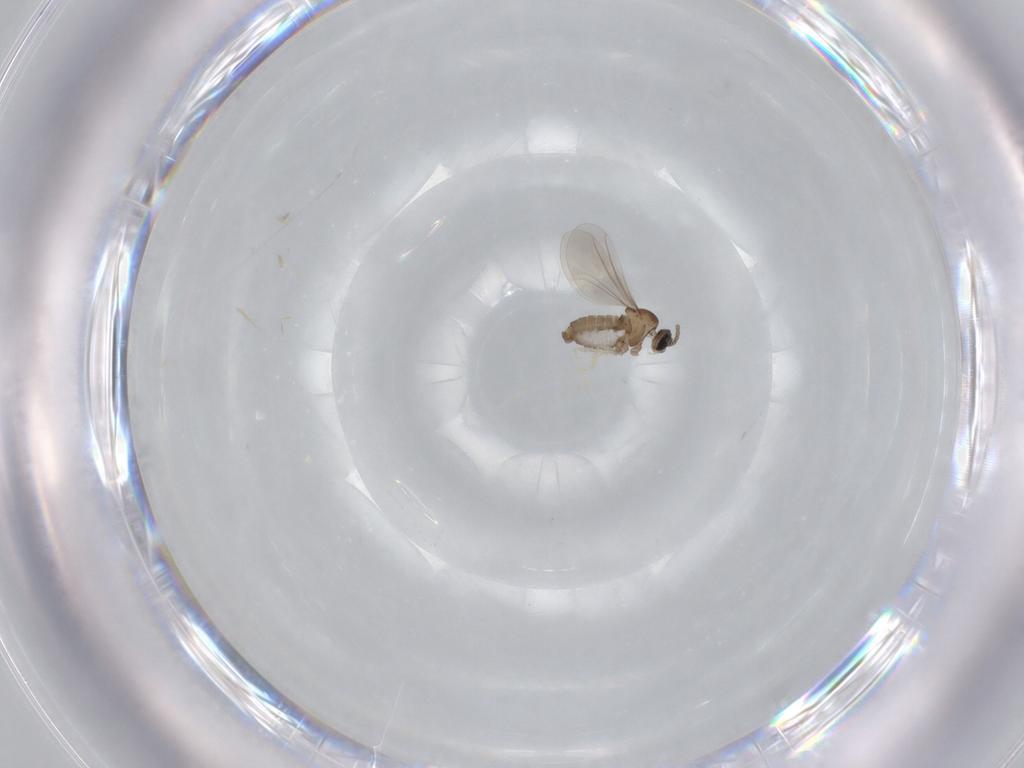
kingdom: Animalia
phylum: Arthropoda
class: Insecta
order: Diptera
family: Cecidomyiidae
